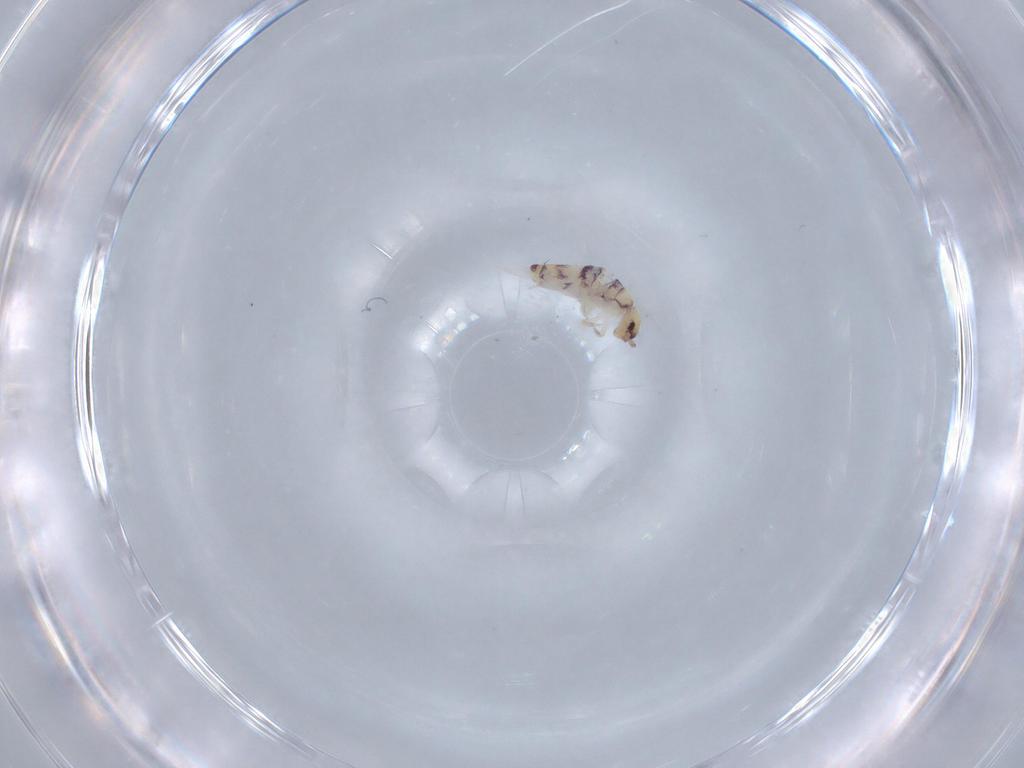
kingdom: Animalia
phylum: Arthropoda
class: Collembola
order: Entomobryomorpha
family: Entomobryidae
